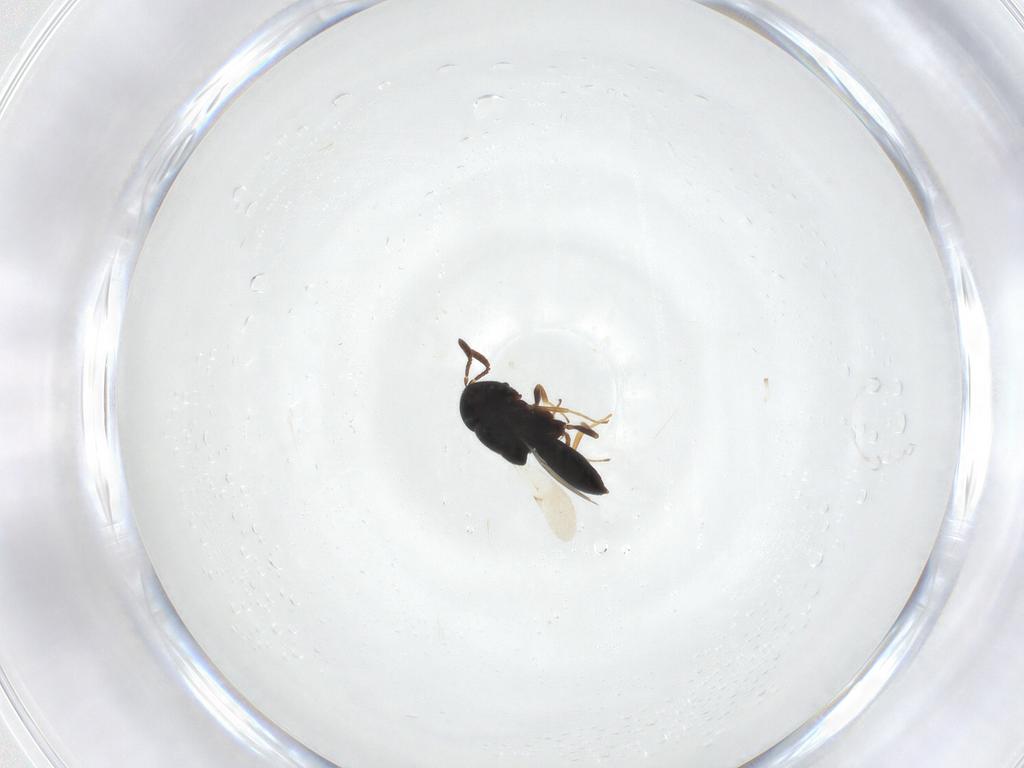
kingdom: Animalia
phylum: Arthropoda
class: Insecta
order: Hymenoptera
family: Scelionidae
